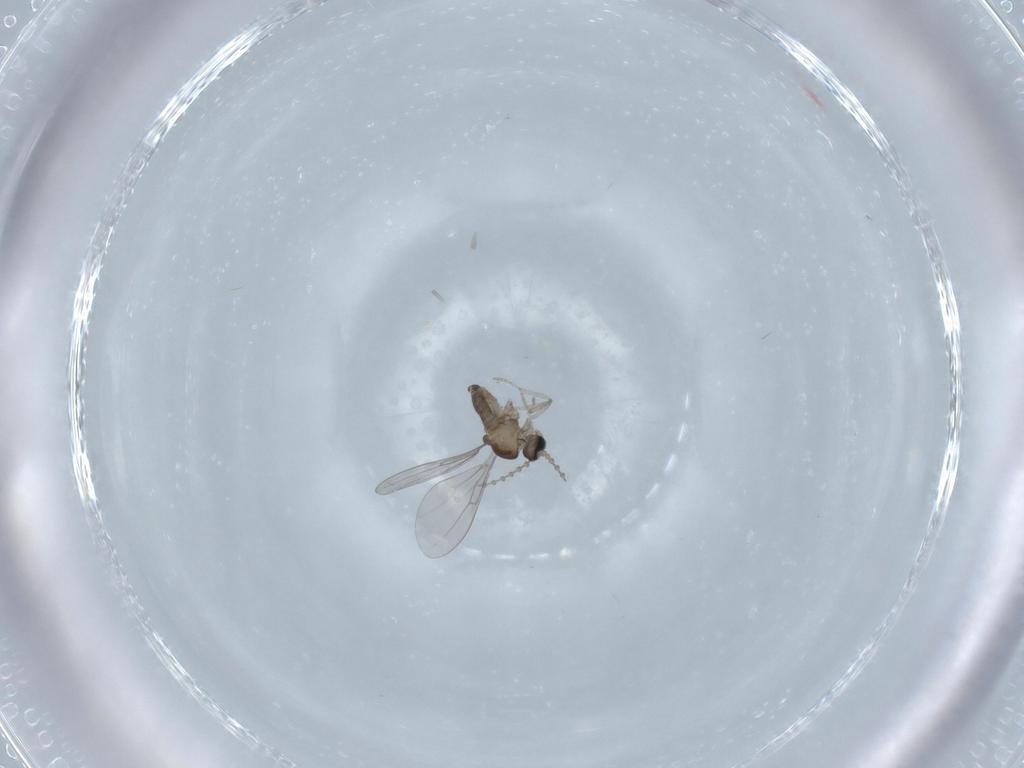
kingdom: Animalia
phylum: Arthropoda
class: Insecta
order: Diptera
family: Cecidomyiidae
